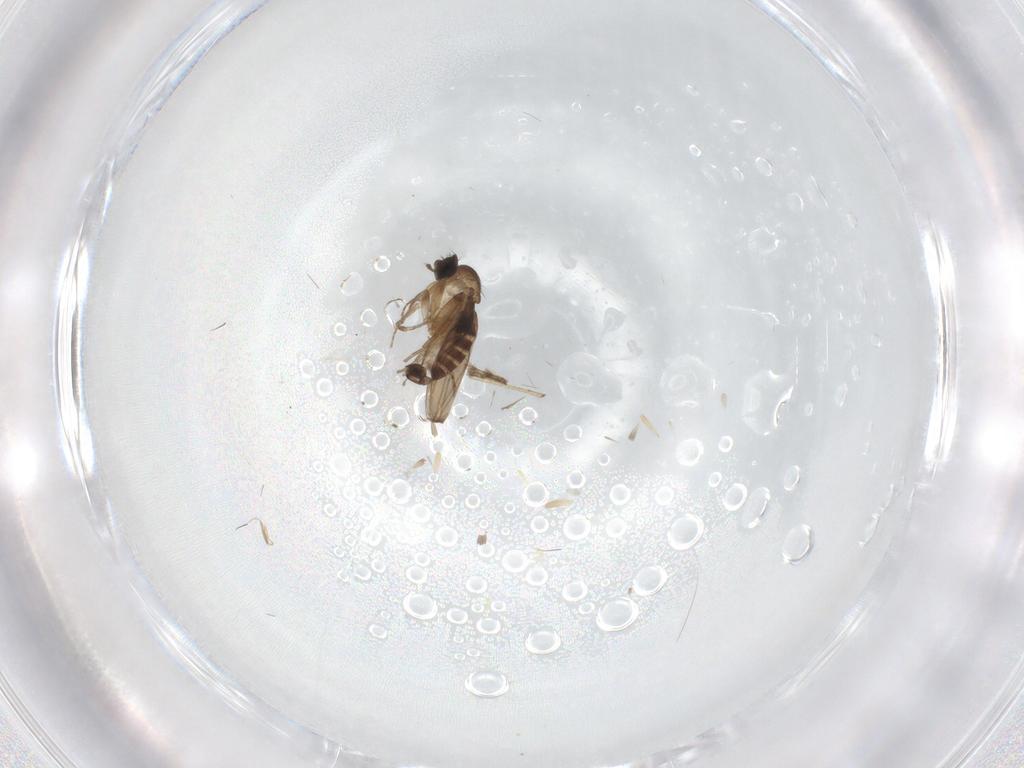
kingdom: Animalia
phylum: Arthropoda
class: Insecta
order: Diptera
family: Sciaridae
